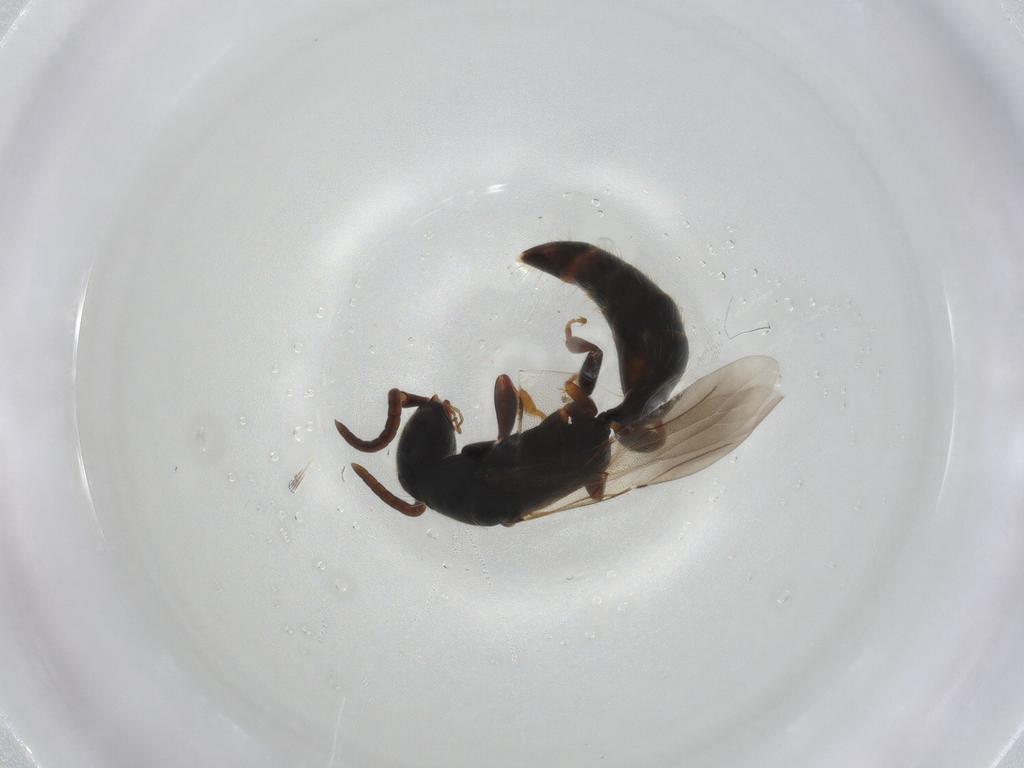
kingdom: Animalia
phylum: Arthropoda
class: Insecta
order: Hymenoptera
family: Bethylidae
